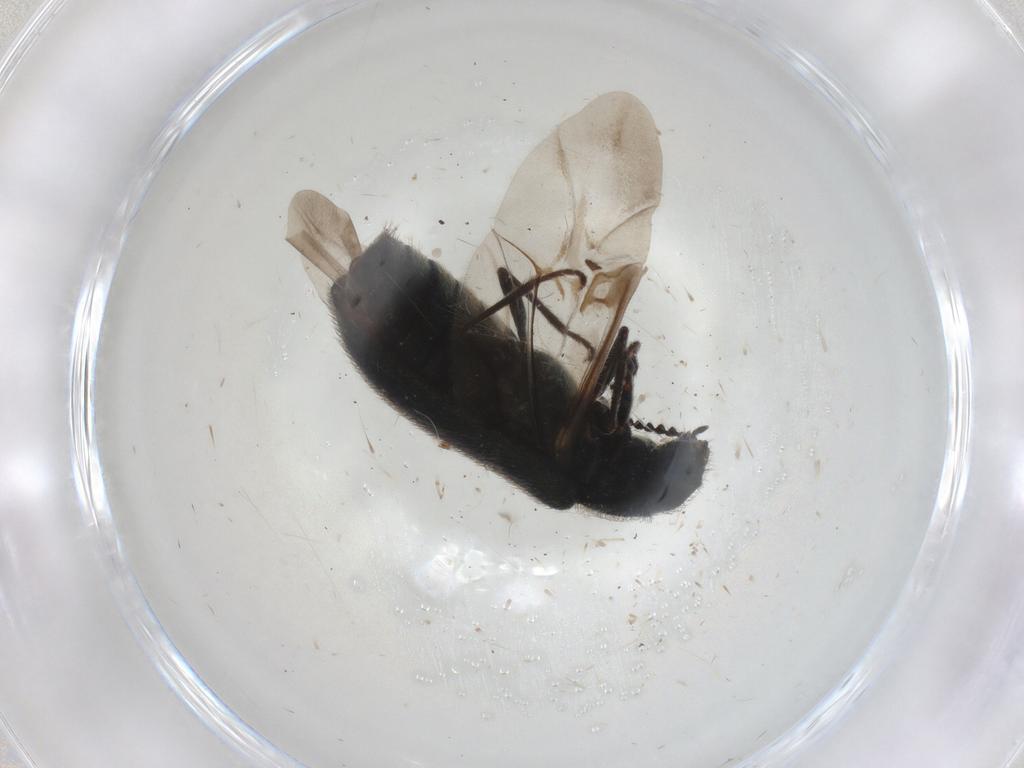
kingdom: Animalia
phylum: Arthropoda
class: Insecta
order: Coleoptera
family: Melyridae
